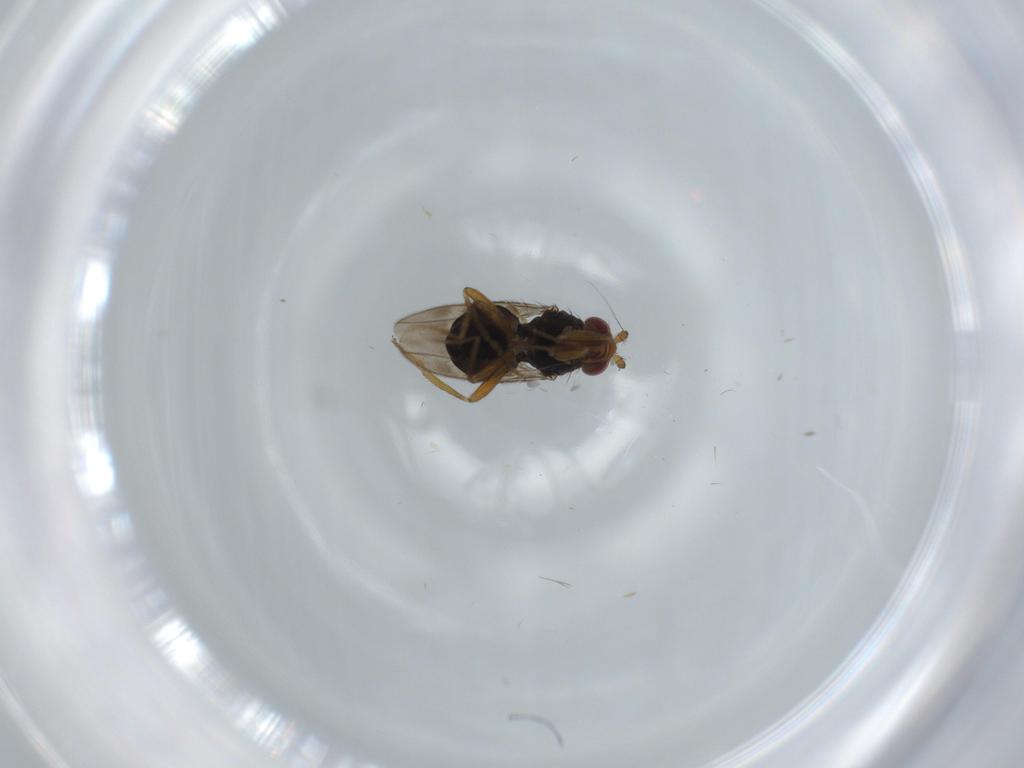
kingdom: Animalia
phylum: Arthropoda
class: Insecta
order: Diptera
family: Sphaeroceridae
